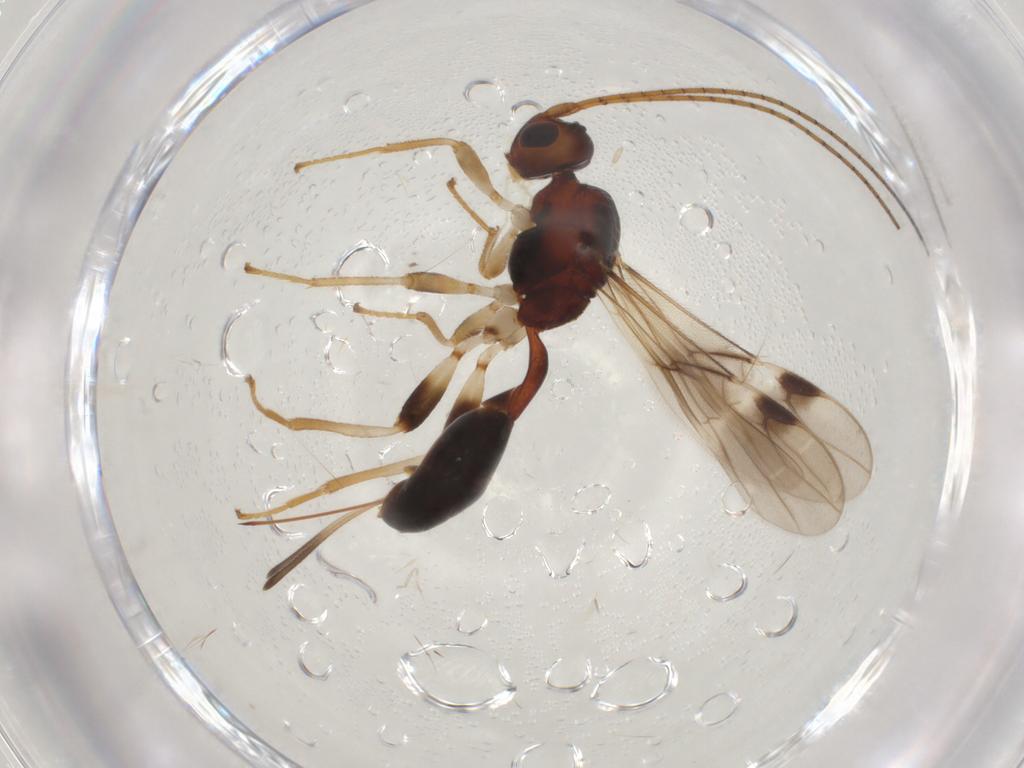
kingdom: Animalia
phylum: Arthropoda
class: Insecta
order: Diptera
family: Cecidomyiidae
